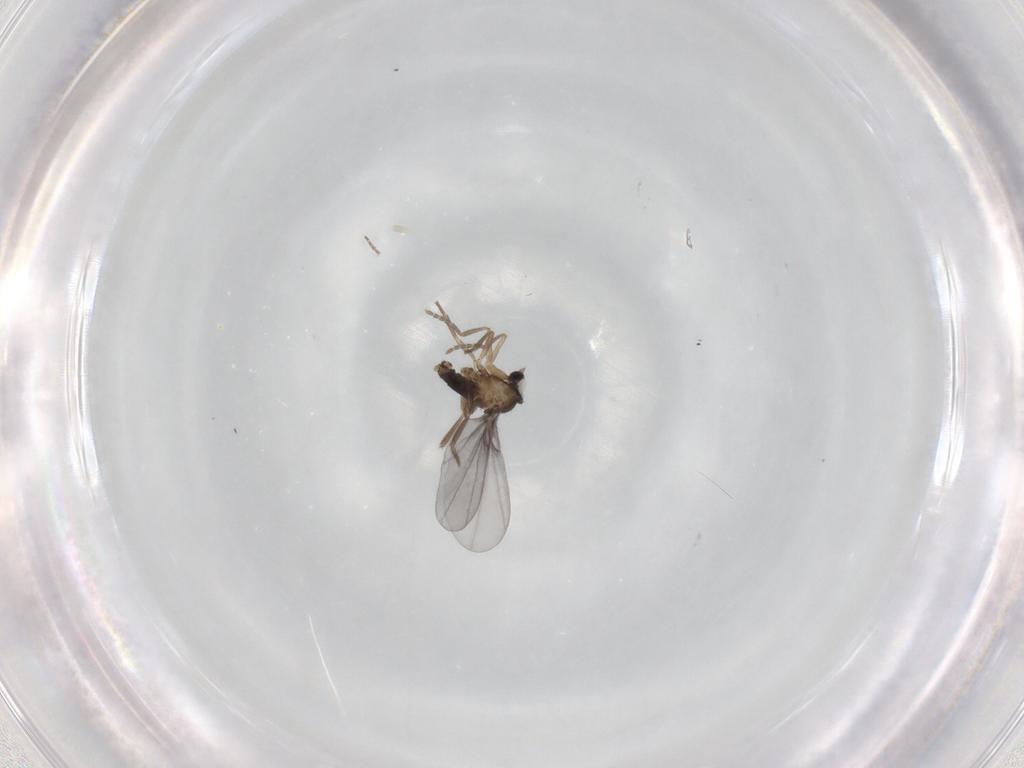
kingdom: Animalia
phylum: Arthropoda
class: Insecta
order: Diptera
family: Phoridae
